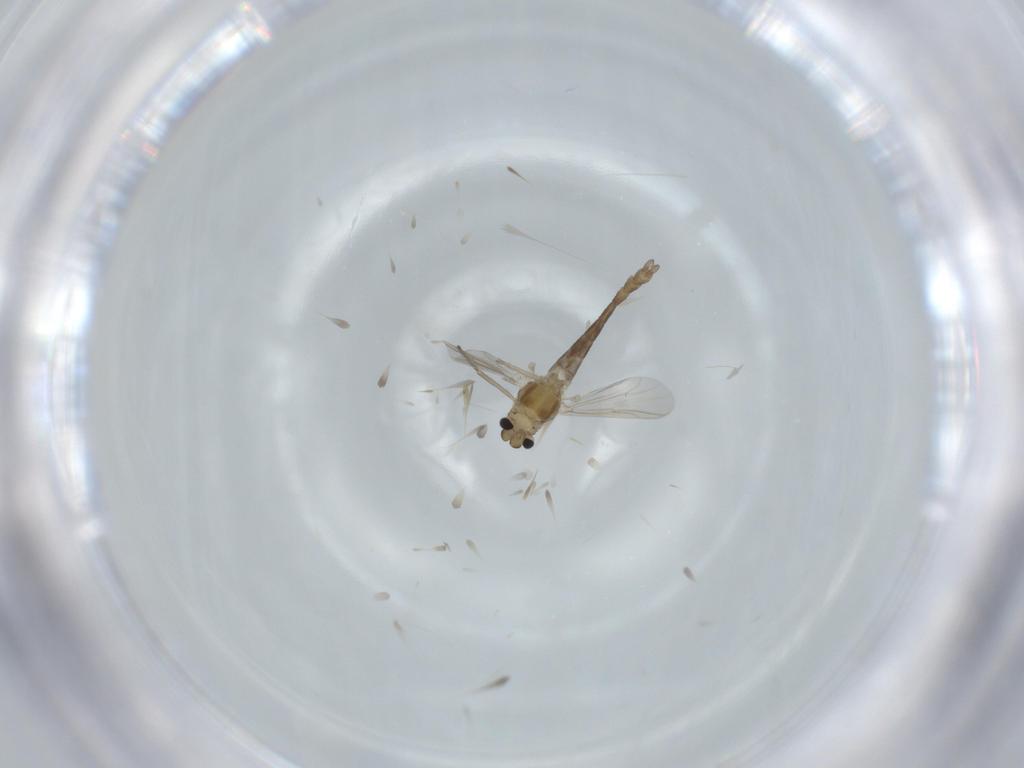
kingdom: Animalia
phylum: Arthropoda
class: Insecta
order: Diptera
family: Chironomidae
